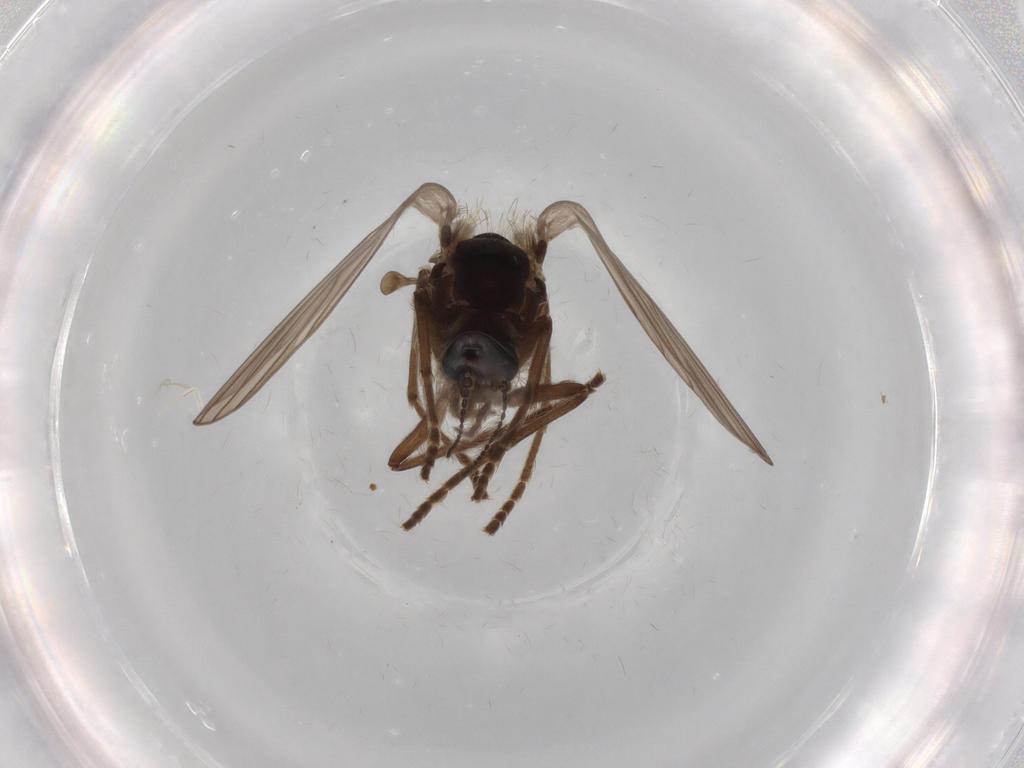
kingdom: Animalia
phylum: Arthropoda
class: Insecta
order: Diptera
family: Psychodidae
